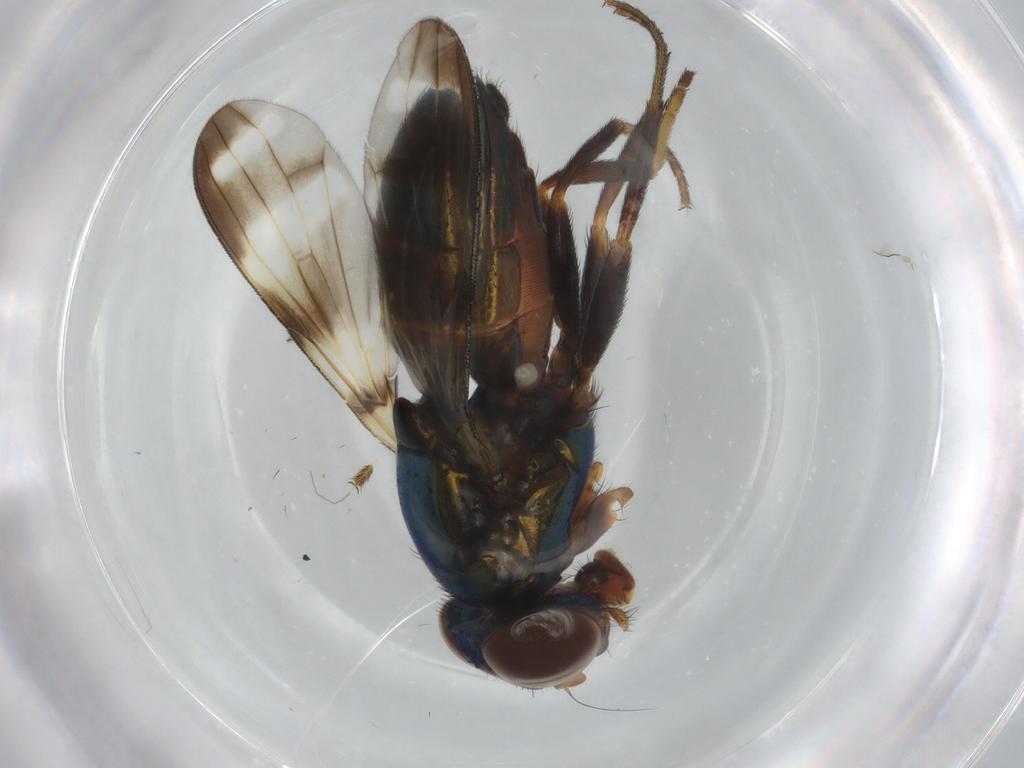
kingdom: Animalia
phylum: Arthropoda
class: Insecta
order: Diptera
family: Ulidiidae
